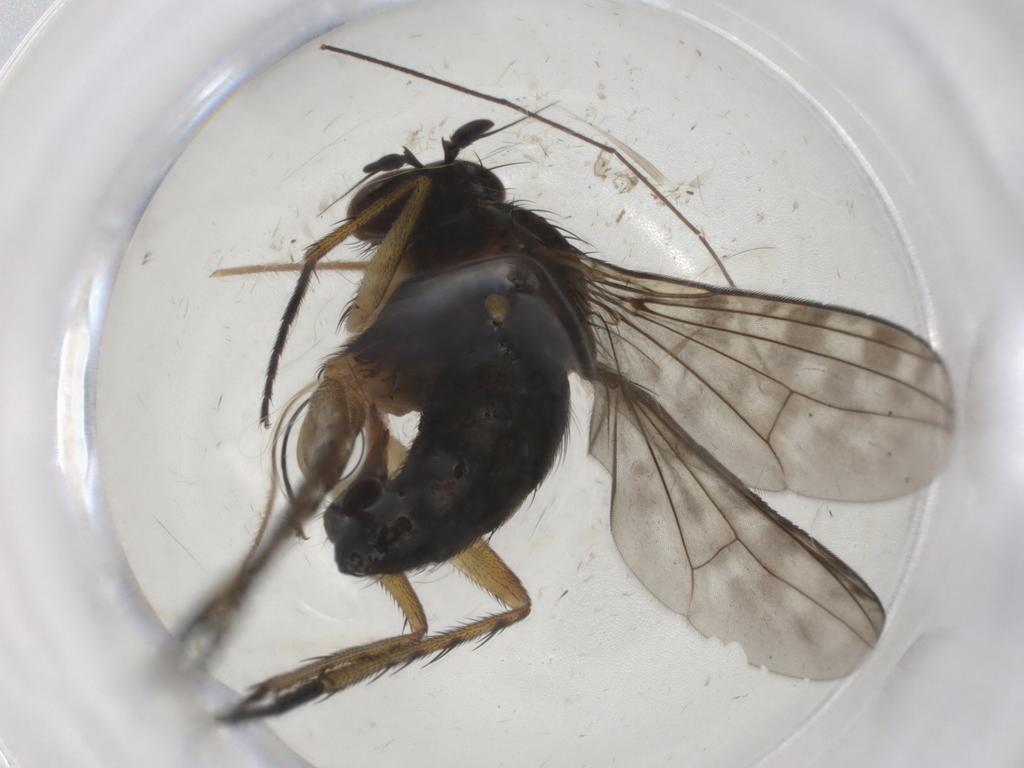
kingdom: Animalia
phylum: Arthropoda
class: Insecta
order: Diptera
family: Dolichopodidae
